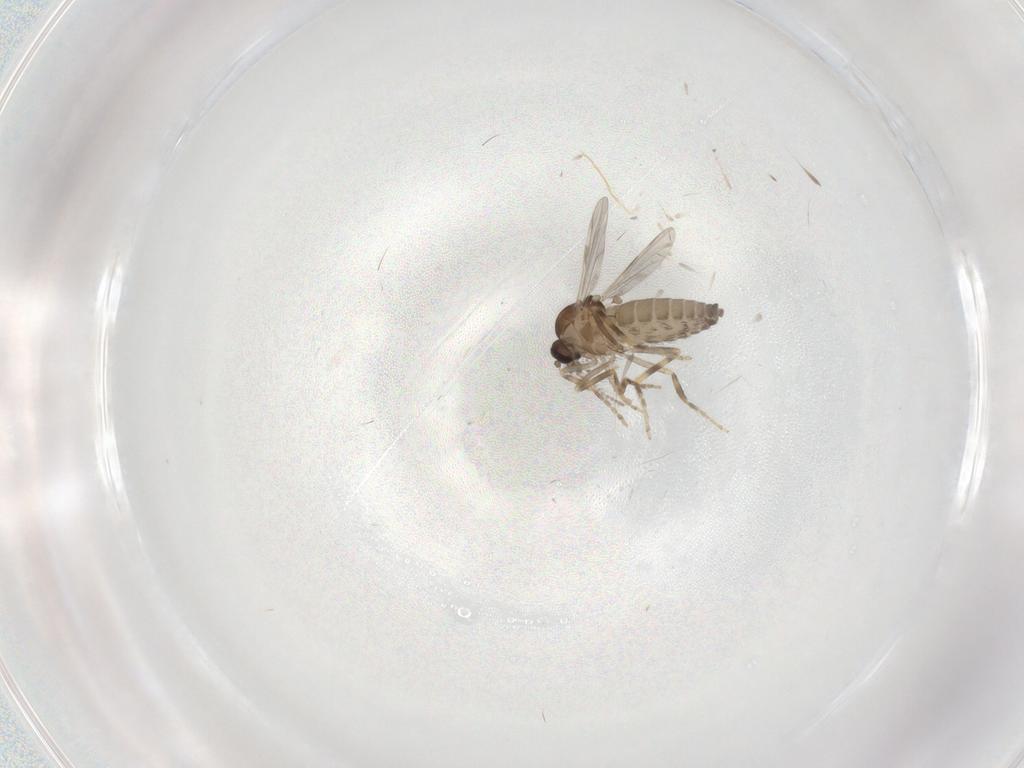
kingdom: Animalia
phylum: Arthropoda
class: Insecta
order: Diptera
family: Ceratopogonidae
